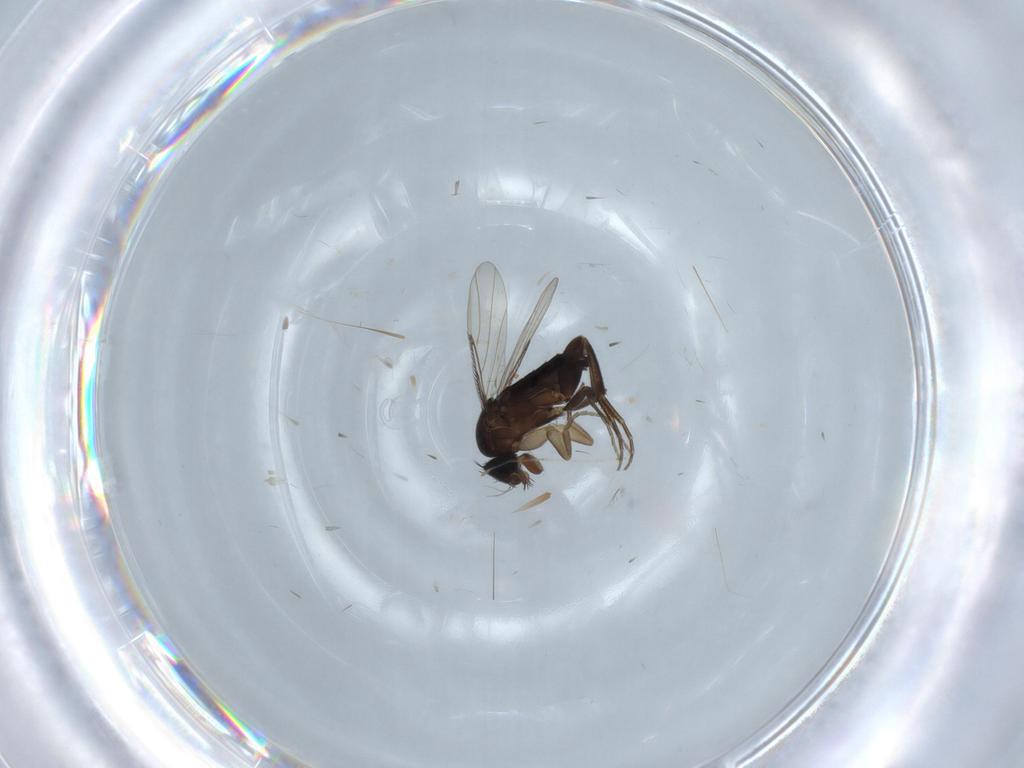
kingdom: Animalia
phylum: Arthropoda
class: Insecta
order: Diptera
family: Phoridae
